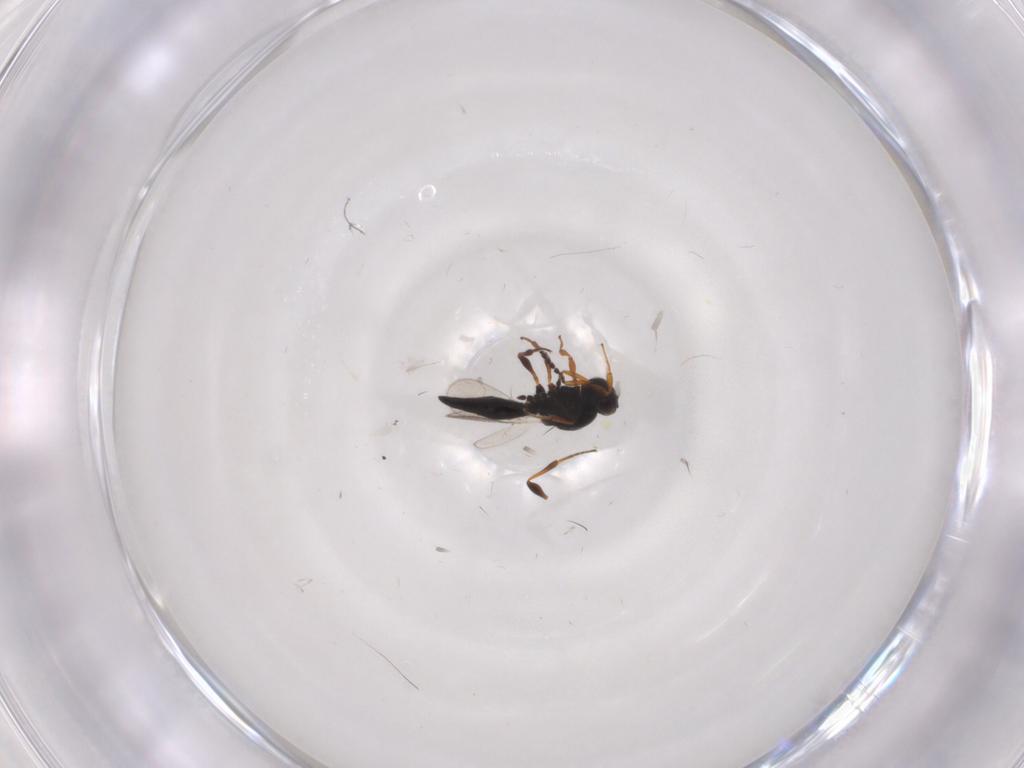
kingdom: Animalia
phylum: Arthropoda
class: Insecta
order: Hymenoptera
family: Platygastridae
